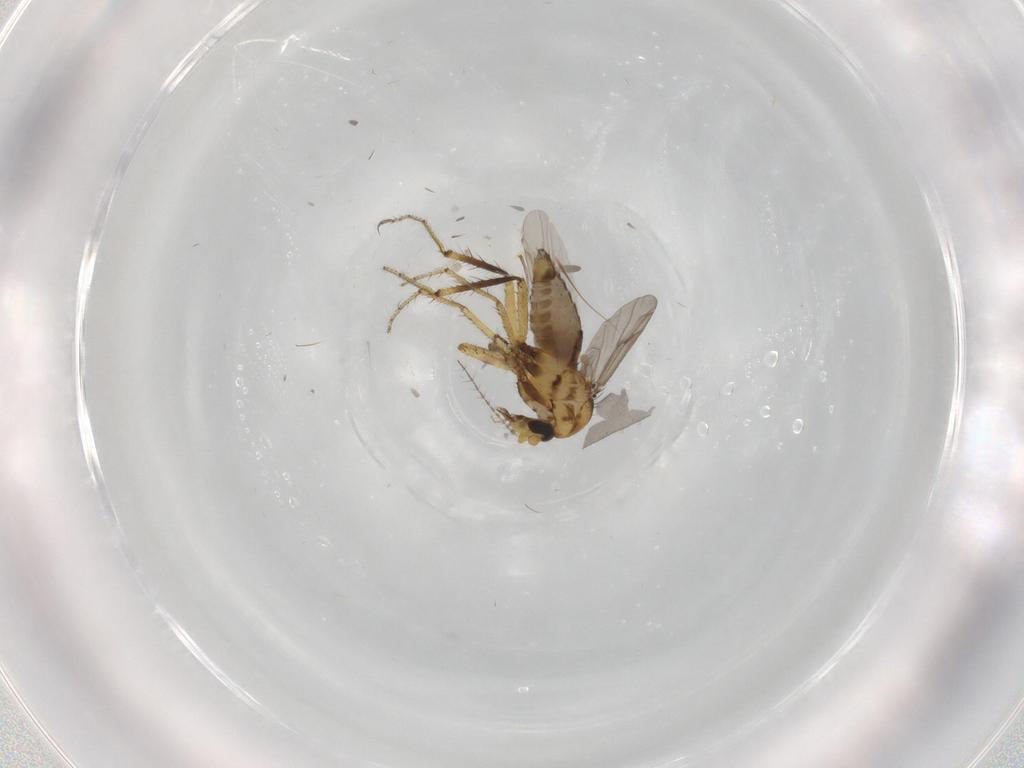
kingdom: Animalia
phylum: Arthropoda
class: Insecta
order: Diptera
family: Ceratopogonidae
